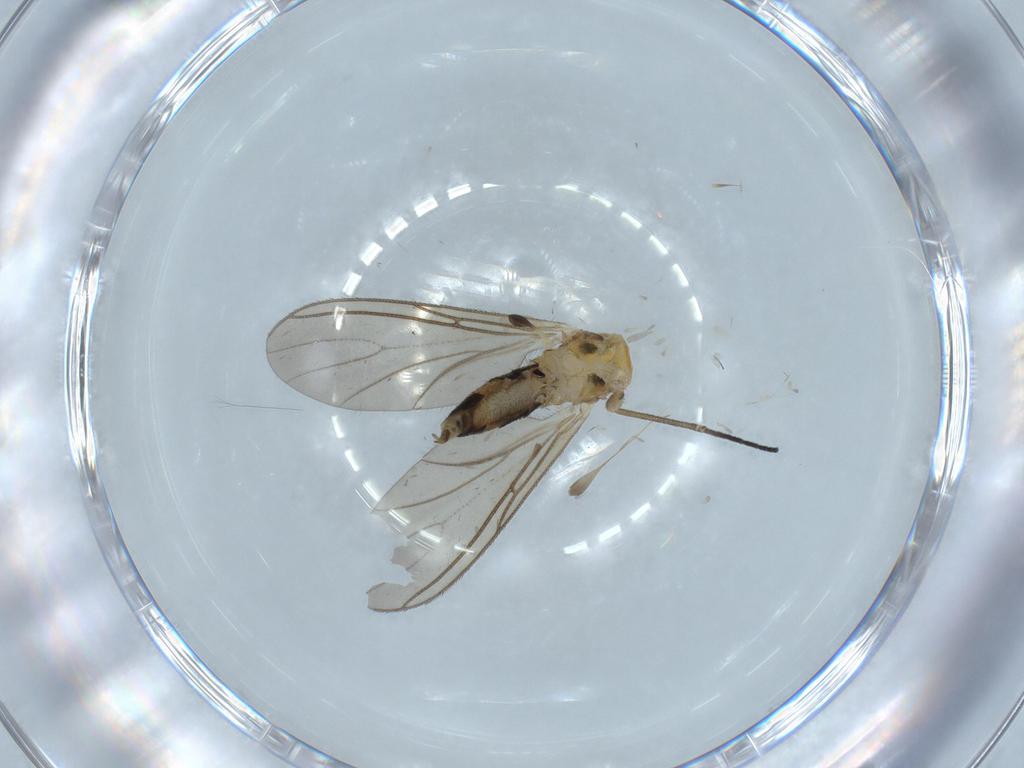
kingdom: Animalia
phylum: Arthropoda
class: Insecta
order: Diptera
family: Sciaridae
